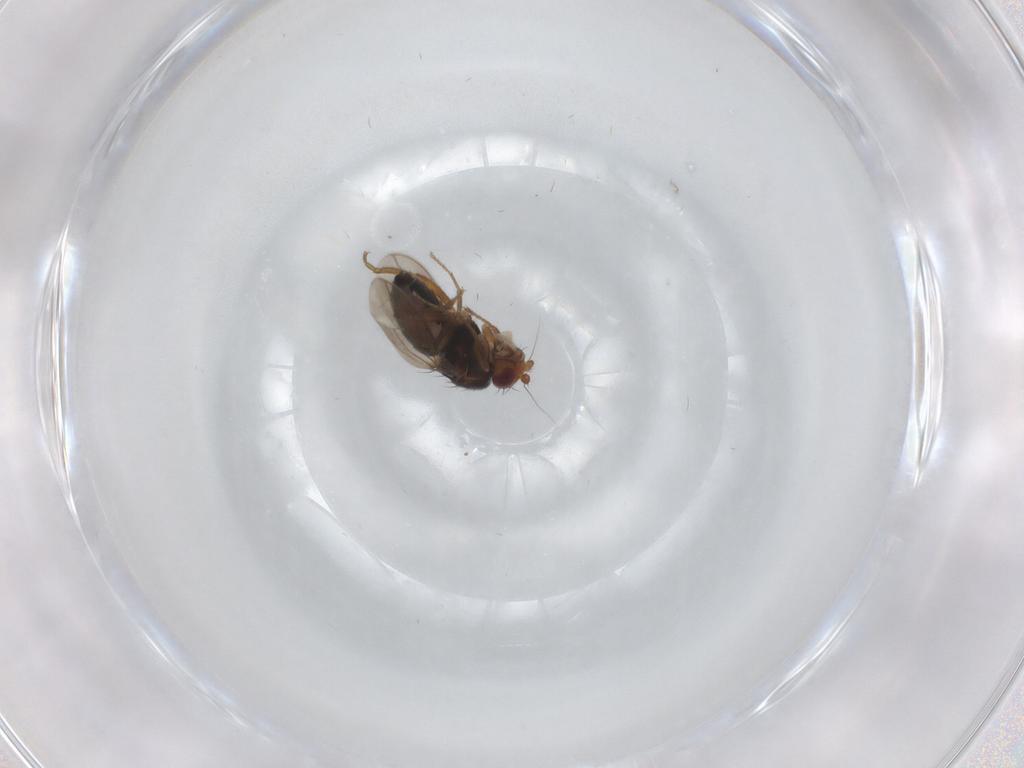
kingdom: Animalia
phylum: Arthropoda
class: Insecta
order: Diptera
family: Sphaeroceridae
